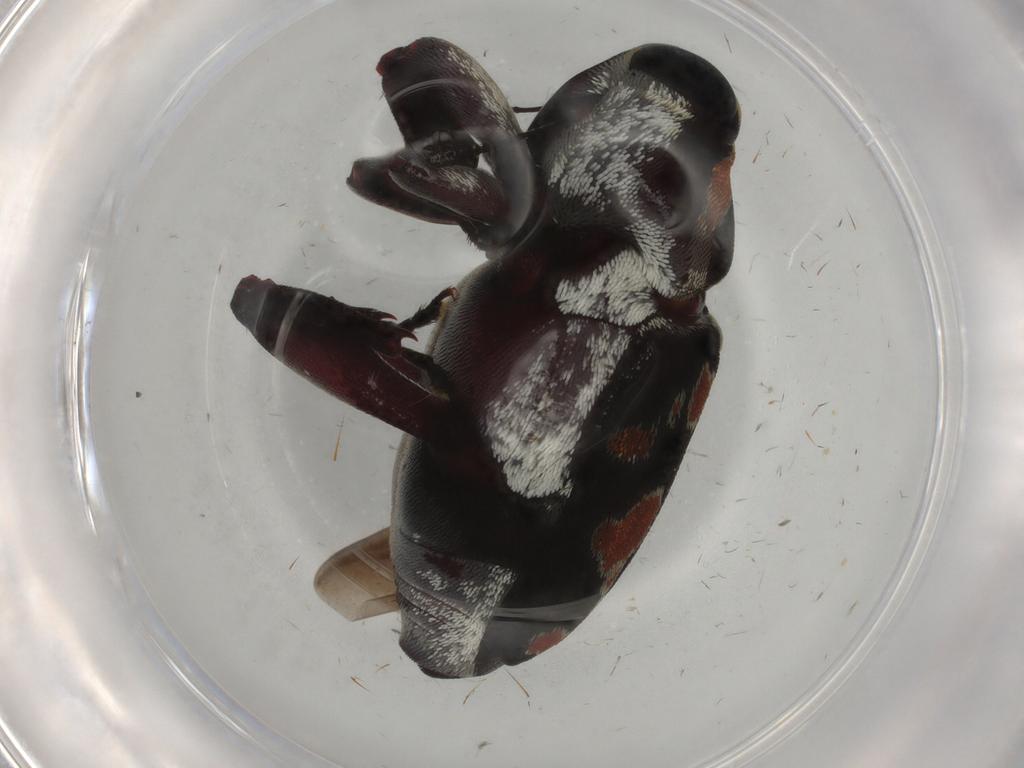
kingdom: Animalia
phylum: Arthropoda
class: Insecta
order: Coleoptera
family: Curculionidae
